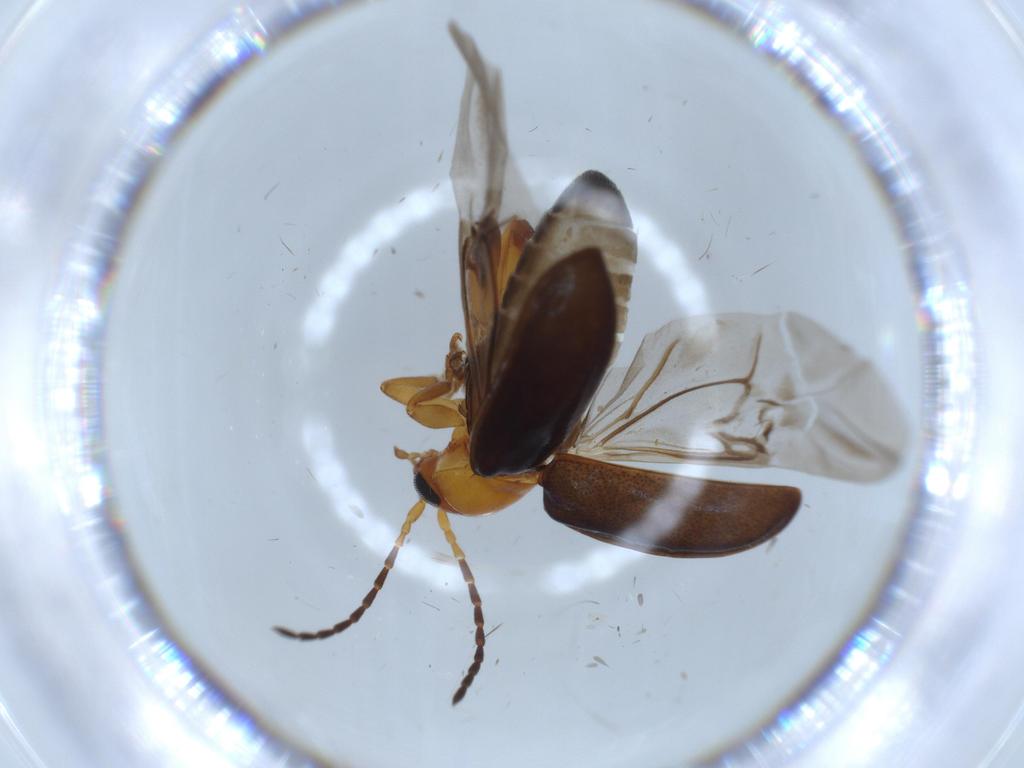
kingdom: Animalia
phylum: Arthropoda
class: Insecta
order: Coleoptera
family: Chrysomelidae
